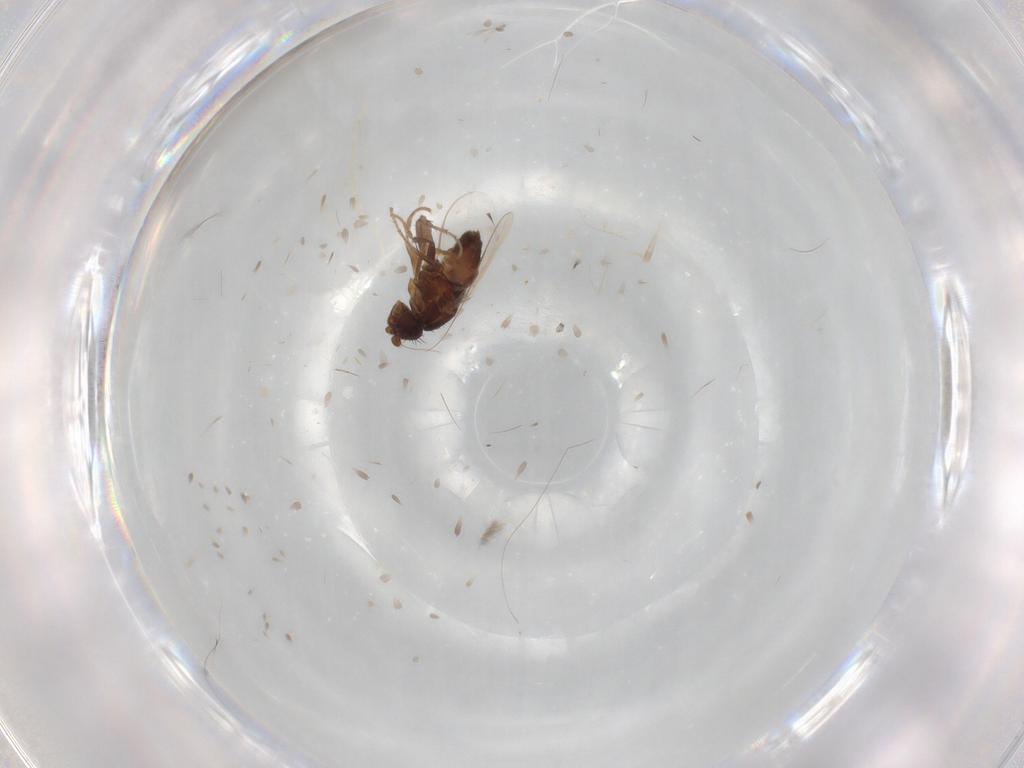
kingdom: Animalia
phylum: Arthropoda
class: Insecta
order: Diptera
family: Sphaeroceridae
